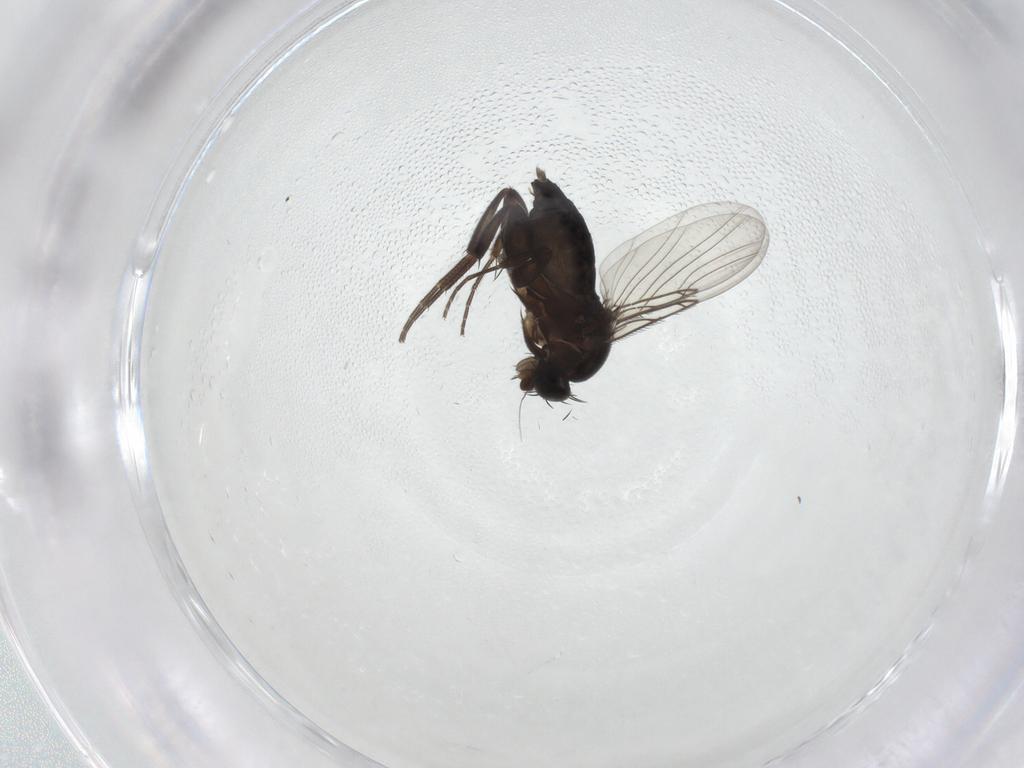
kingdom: Animalia
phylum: Arthropoda
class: Insecta
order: Diptera
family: Phoridae
